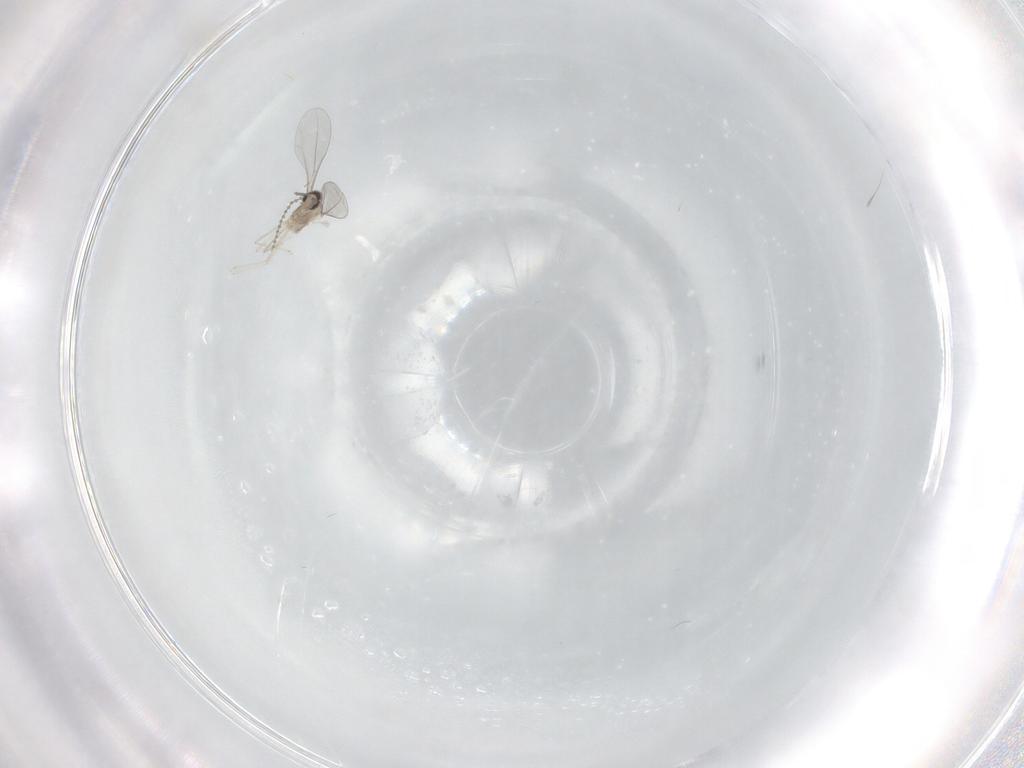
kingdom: Animalia
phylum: Arthropoda
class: Insecta
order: Diptera
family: Cecidomyiidae
